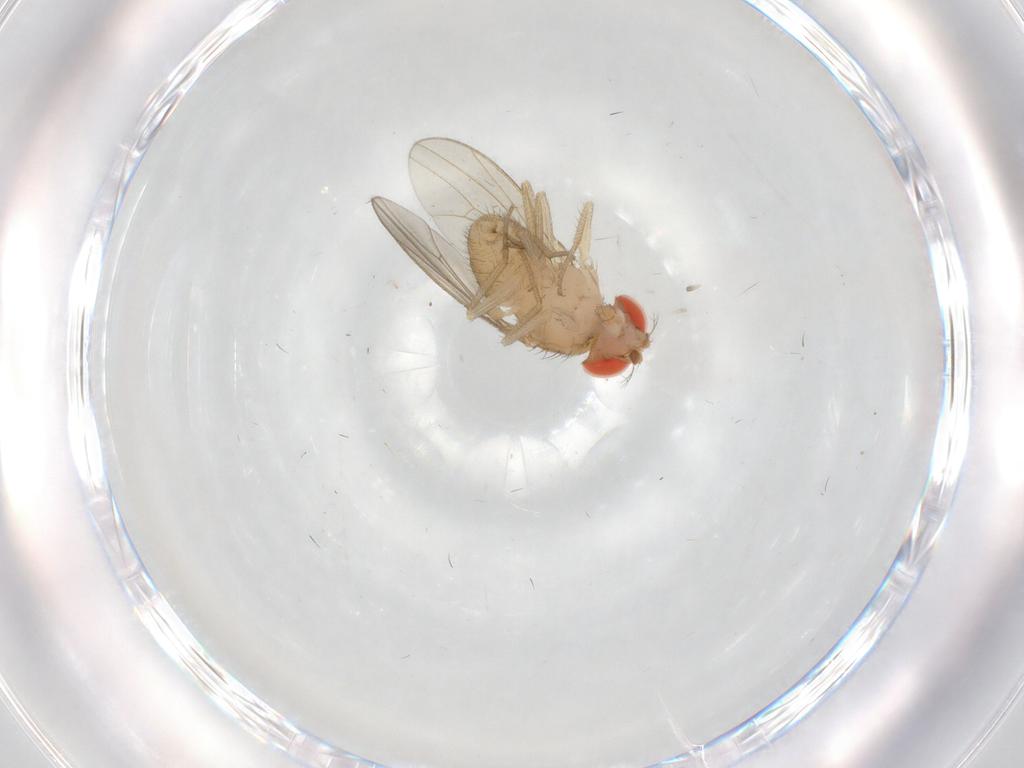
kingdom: Animalia
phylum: Arthropoda
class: Insecta
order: Diptera
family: Drosophilidae
